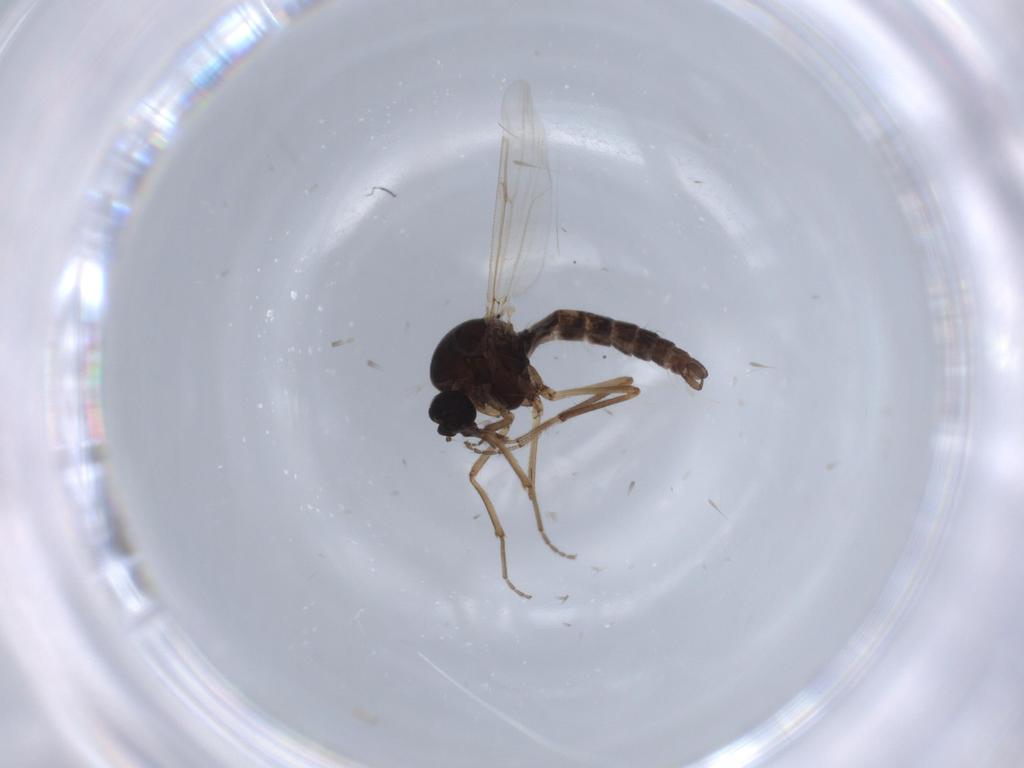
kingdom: Animalia
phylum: Arthropoda
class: Insecta
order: Diptera
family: Ceratopogonidae
